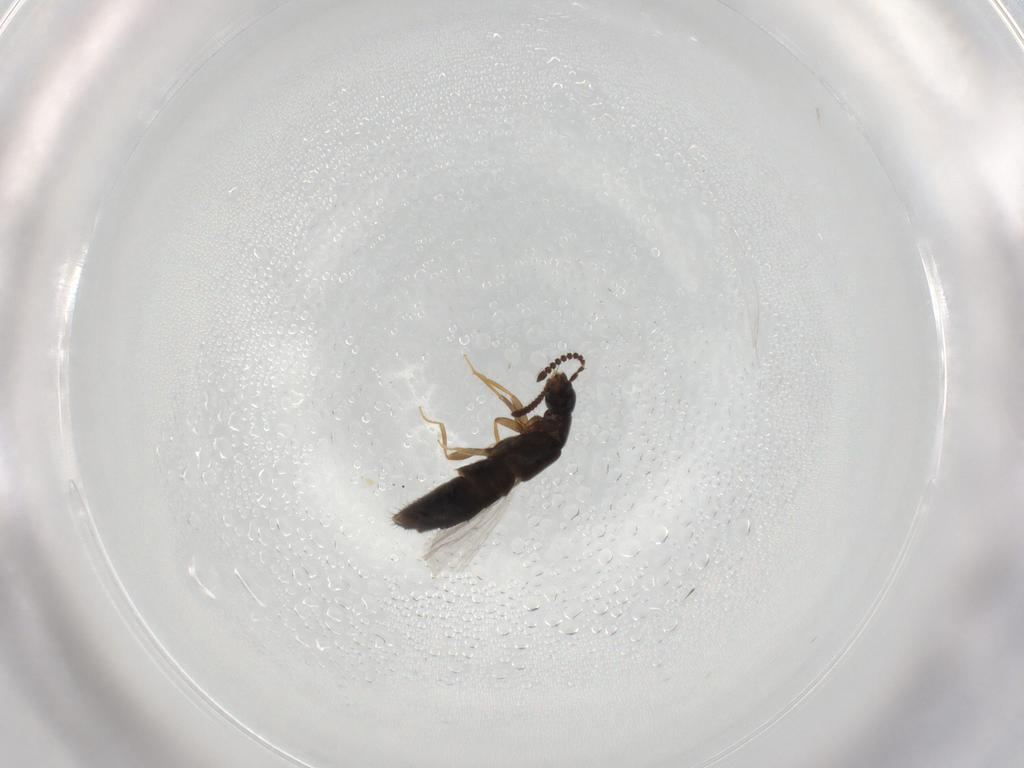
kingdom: Animalia
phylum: Arthropoda
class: Insecta
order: Coleoptera
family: Staphylinidae
